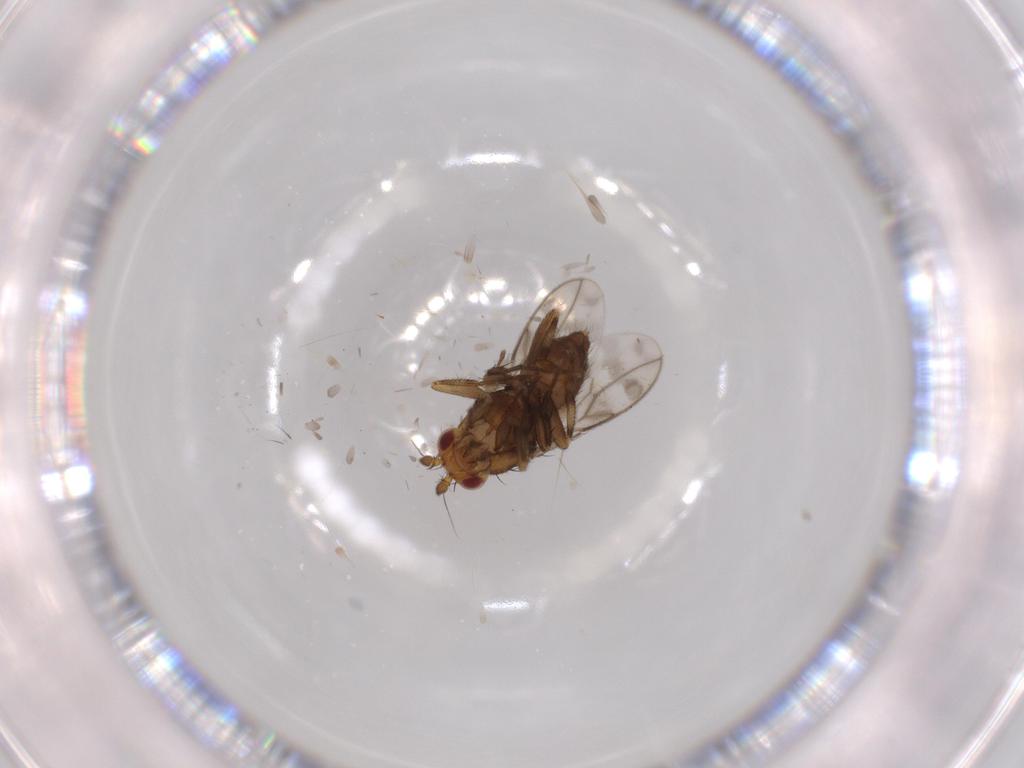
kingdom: Animalia
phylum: Arthropoda
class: Insecta
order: Diptera
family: Sphaeroceridae
